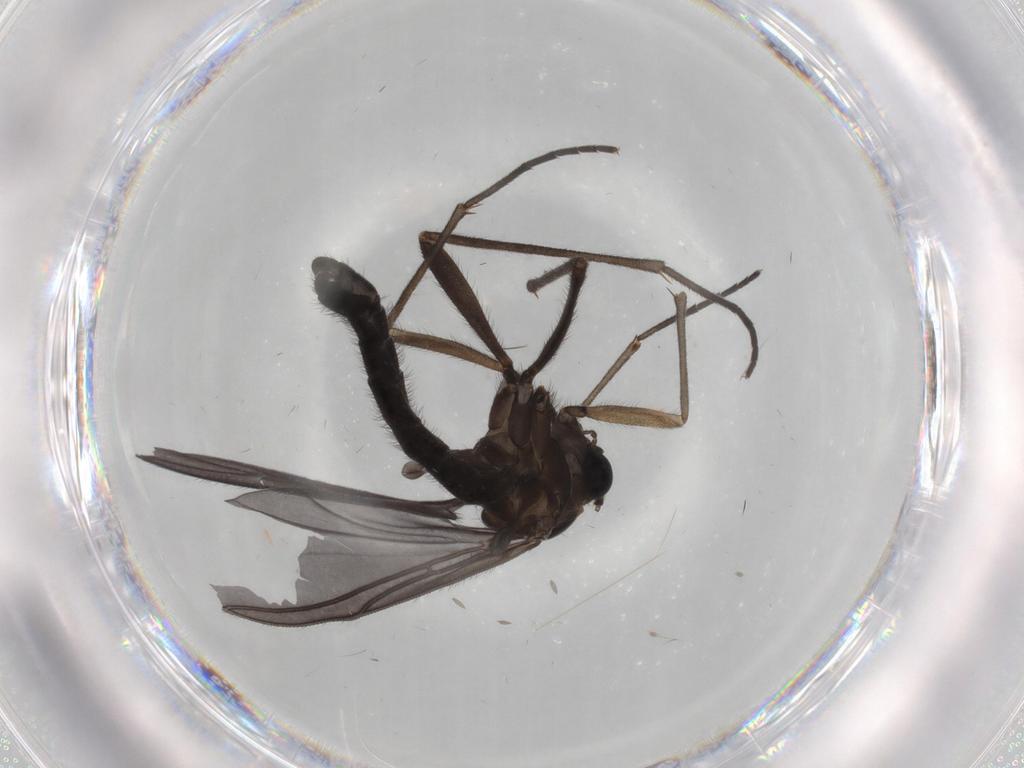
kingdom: Animalia
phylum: Arthropoda
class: Insecta
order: Diptera
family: Sciaridae
